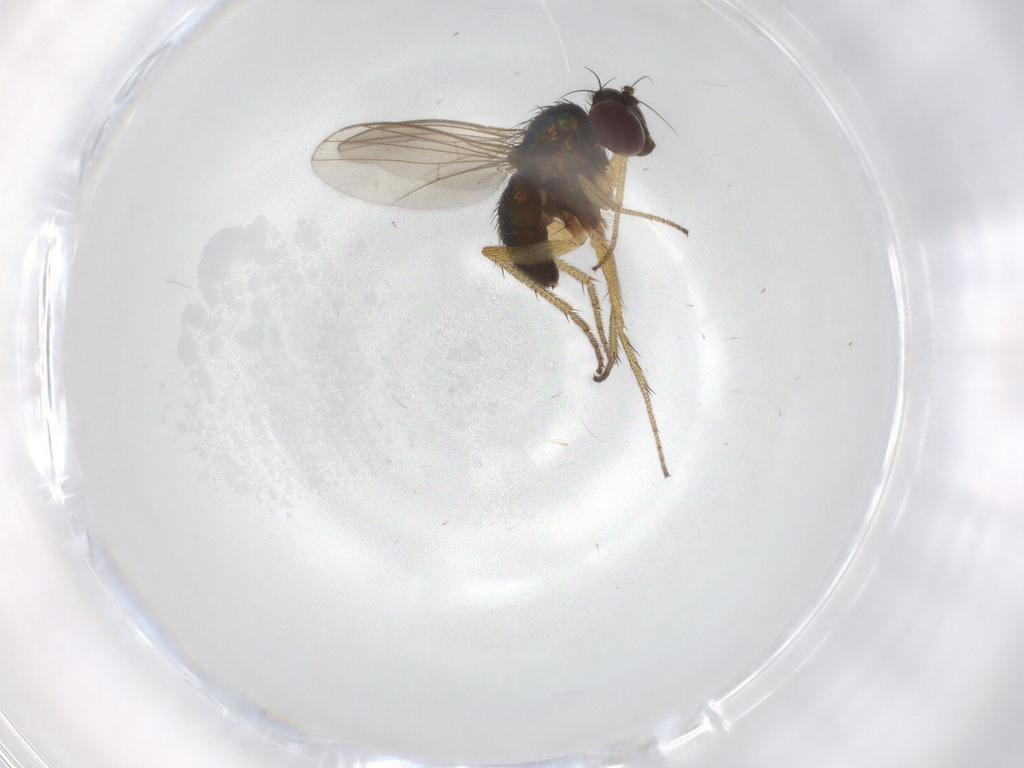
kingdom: Animalia
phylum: Arthropoda
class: Insecta
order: Diptera
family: Dolichopodidae
